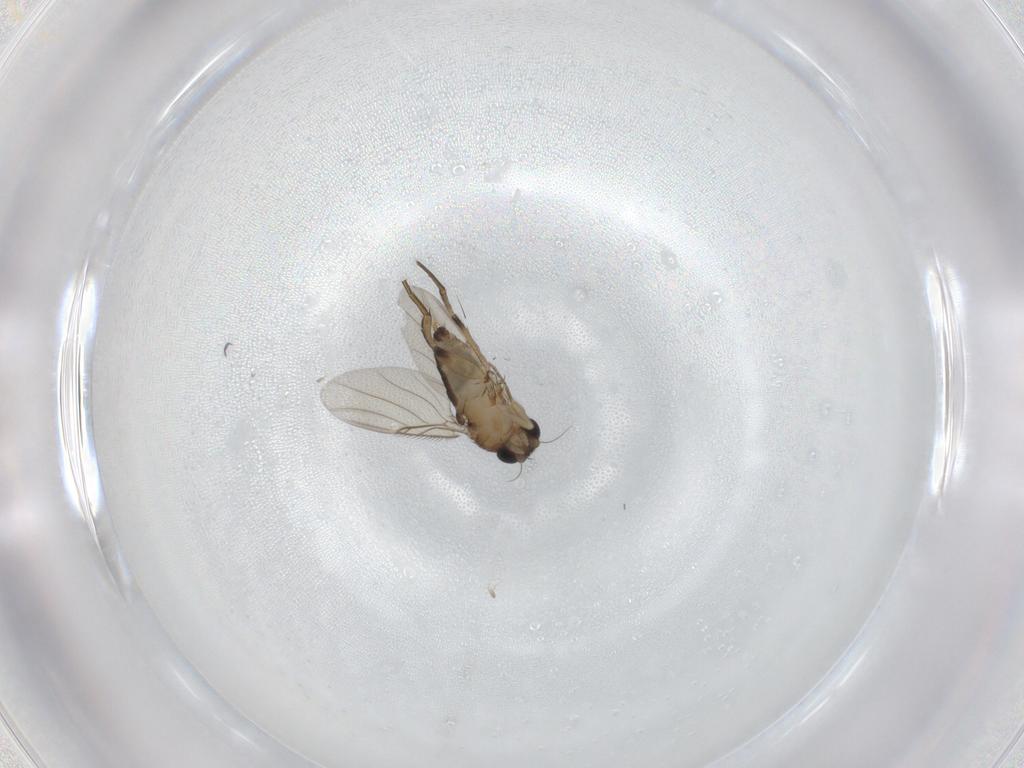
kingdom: Animalia
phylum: Arthropoda
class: Insecta
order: Diptera
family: Phoridae
